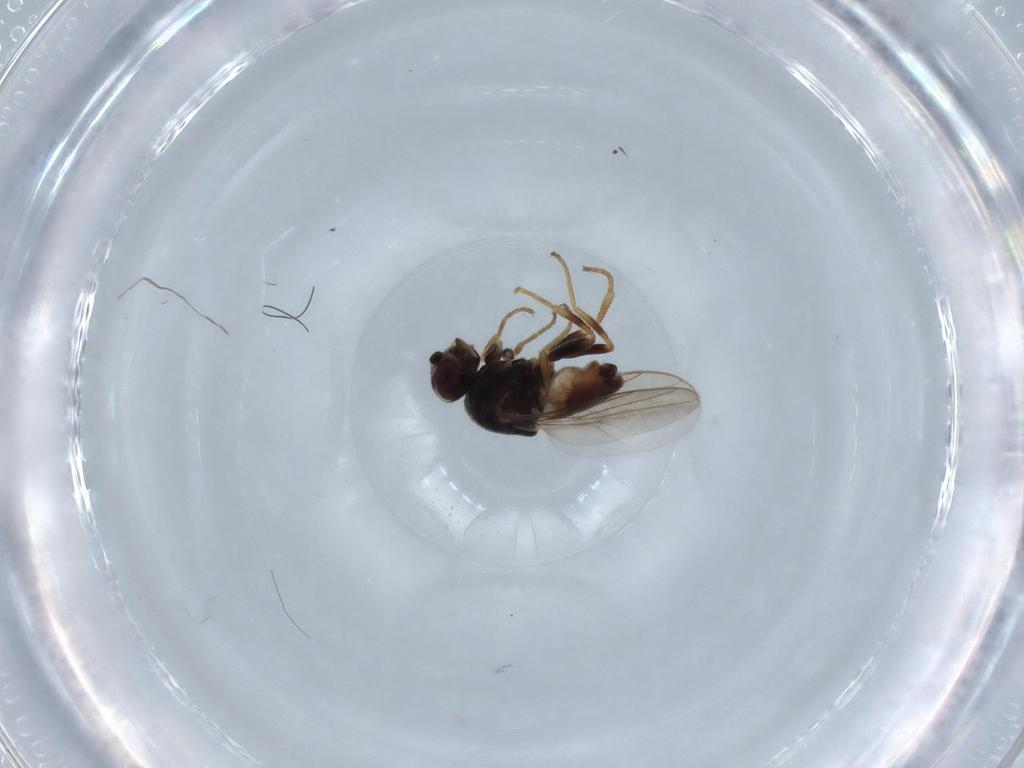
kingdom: Animalia
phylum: Arthropoda
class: Insecta
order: Diptera
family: Chloropidae
